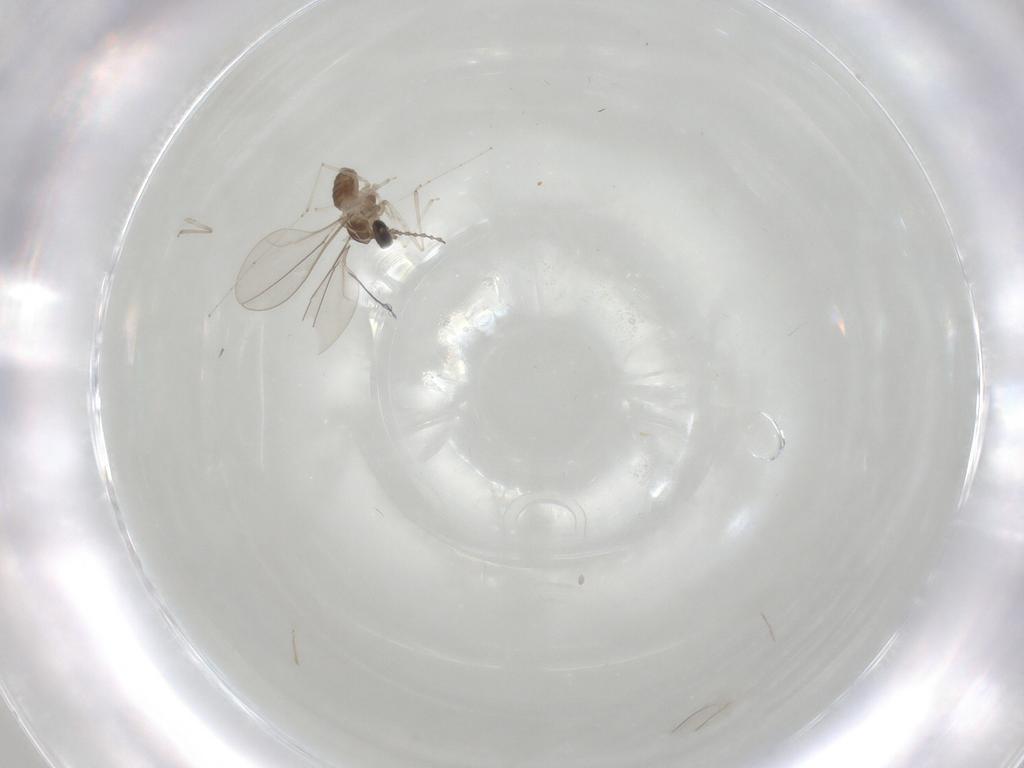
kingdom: Animalia
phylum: Arthropoda
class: Insecta
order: Diptera
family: Cecidomyiidae
